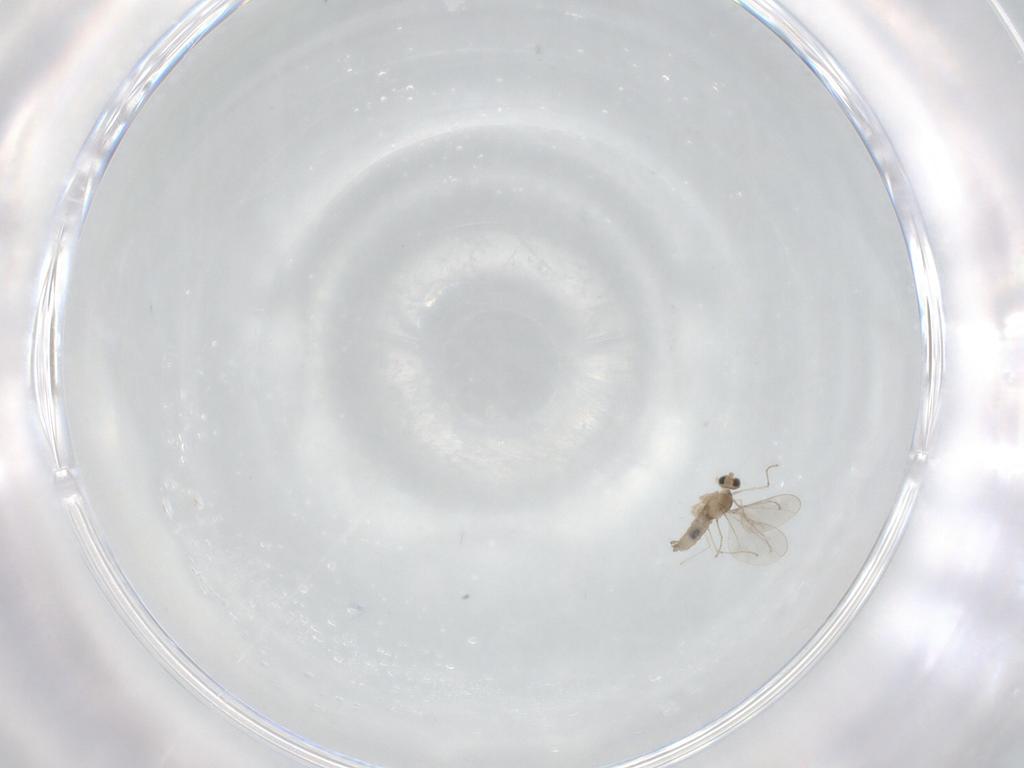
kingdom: Animalia
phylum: Arthropoda
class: Insecta
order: Diptera
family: Cecidomyiidae
